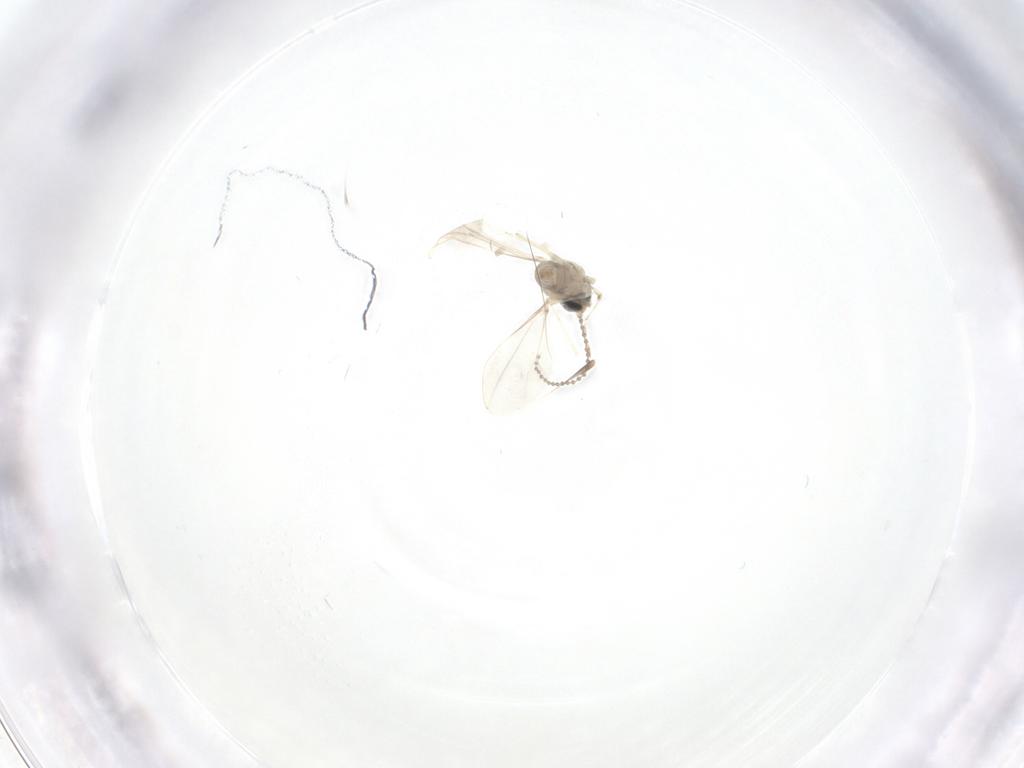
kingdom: Animalia
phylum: Arthropoda
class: Insecta
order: Diptera
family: Cecidomyiidae
